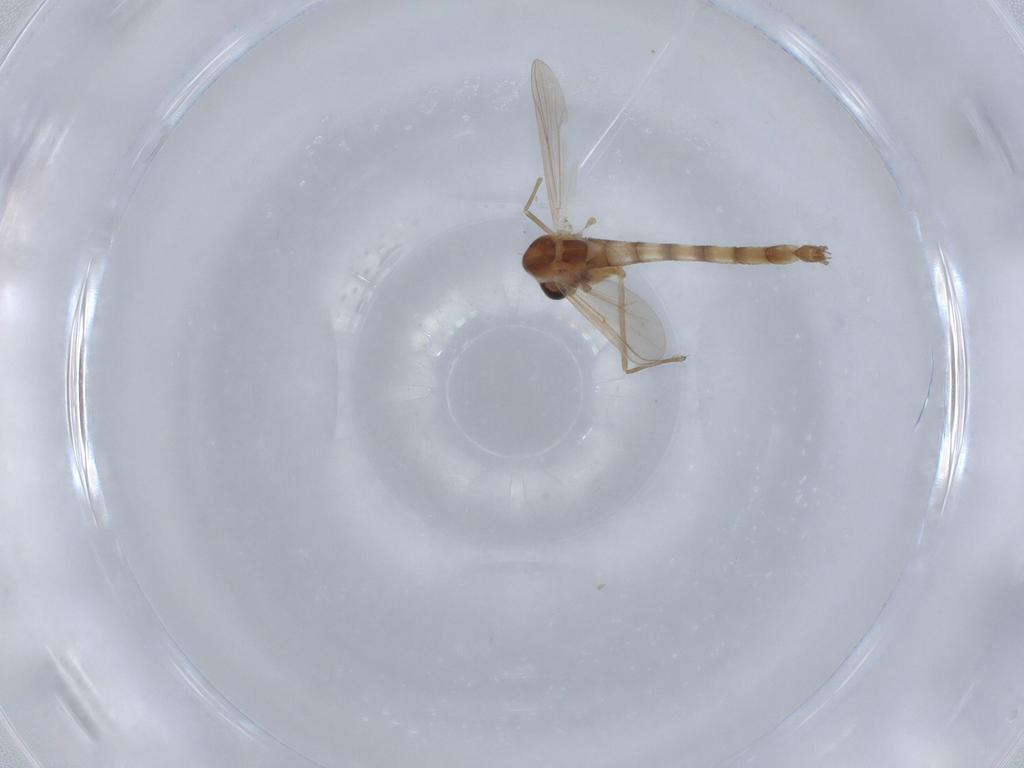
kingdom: Animalia
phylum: Arthropoda
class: Insecta
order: Diptera
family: Chironomidae
